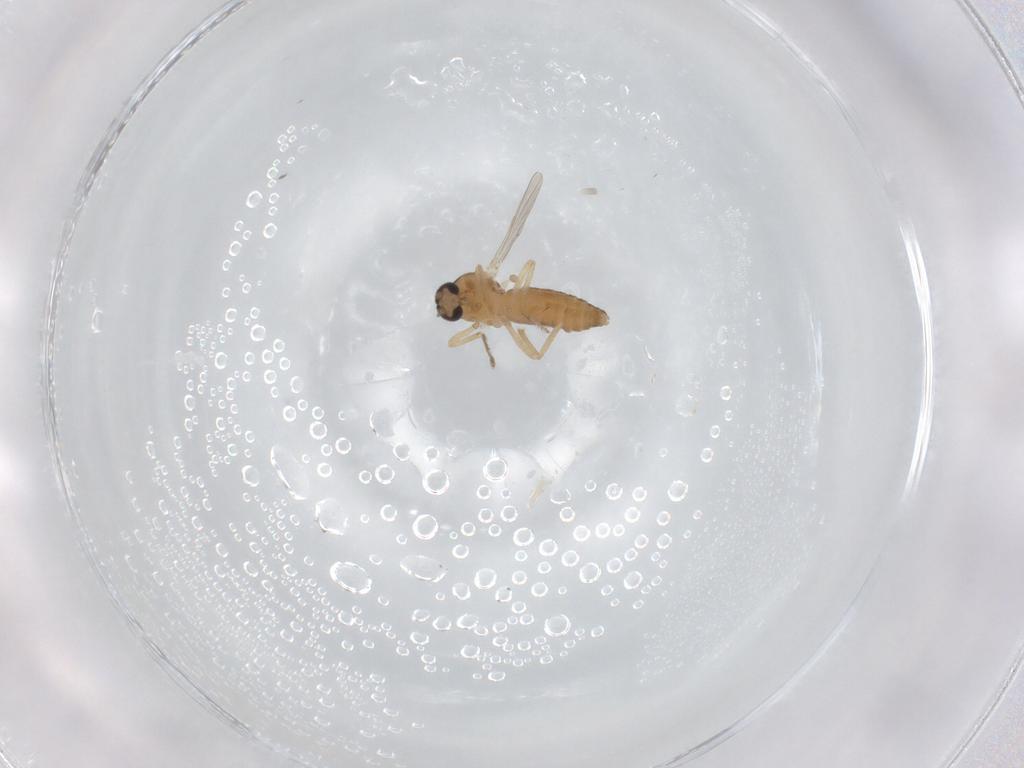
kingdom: Animalia
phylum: Arthropoda
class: Insecta
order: Diptera
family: Ceratopogonidae
